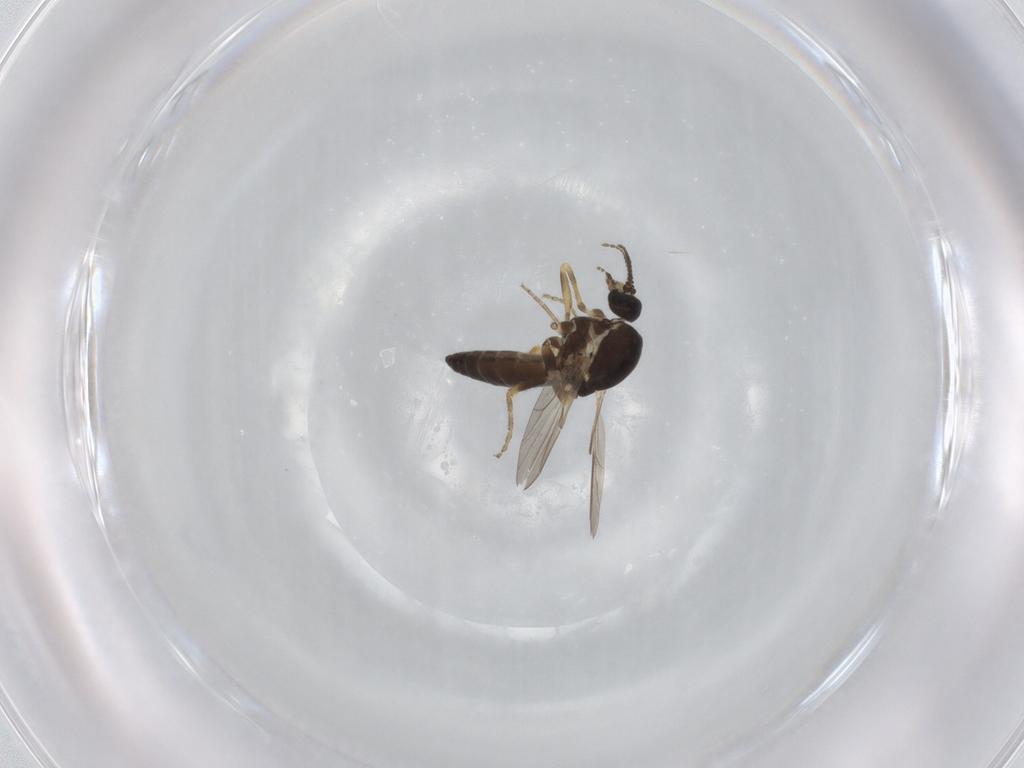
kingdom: Animalia
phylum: Arthropoda
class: Insecta
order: Diptera
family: Ceratopogonidae
